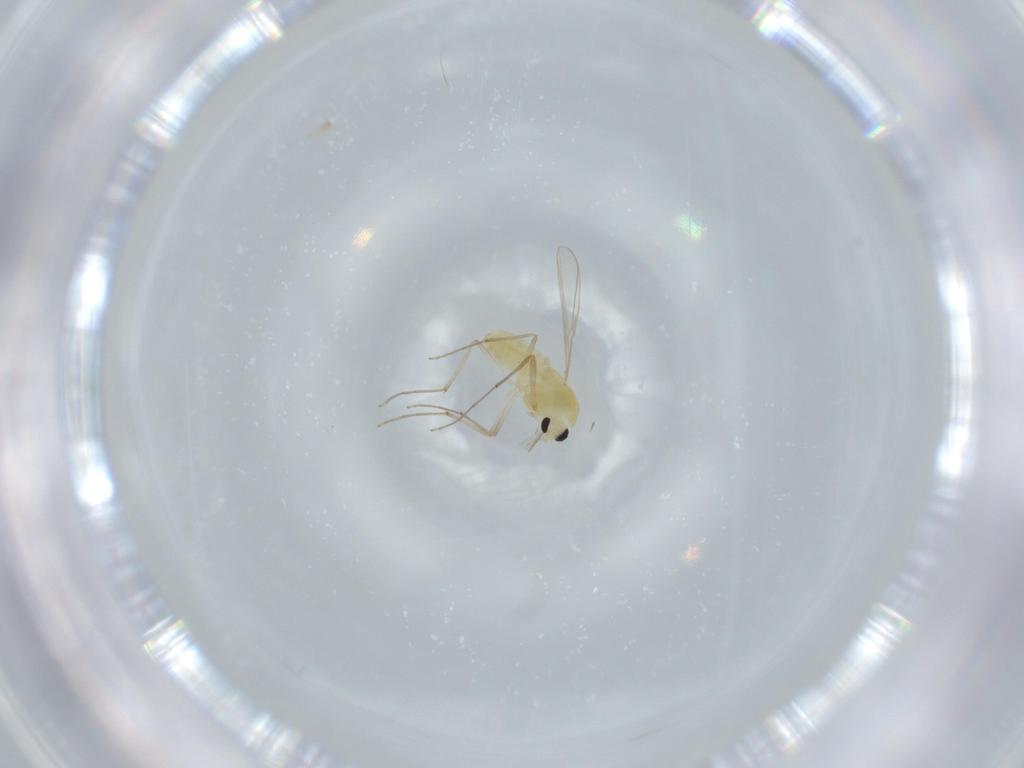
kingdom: Animalia
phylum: Arthropoda
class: Insecta
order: Diptera
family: Chironomidae
